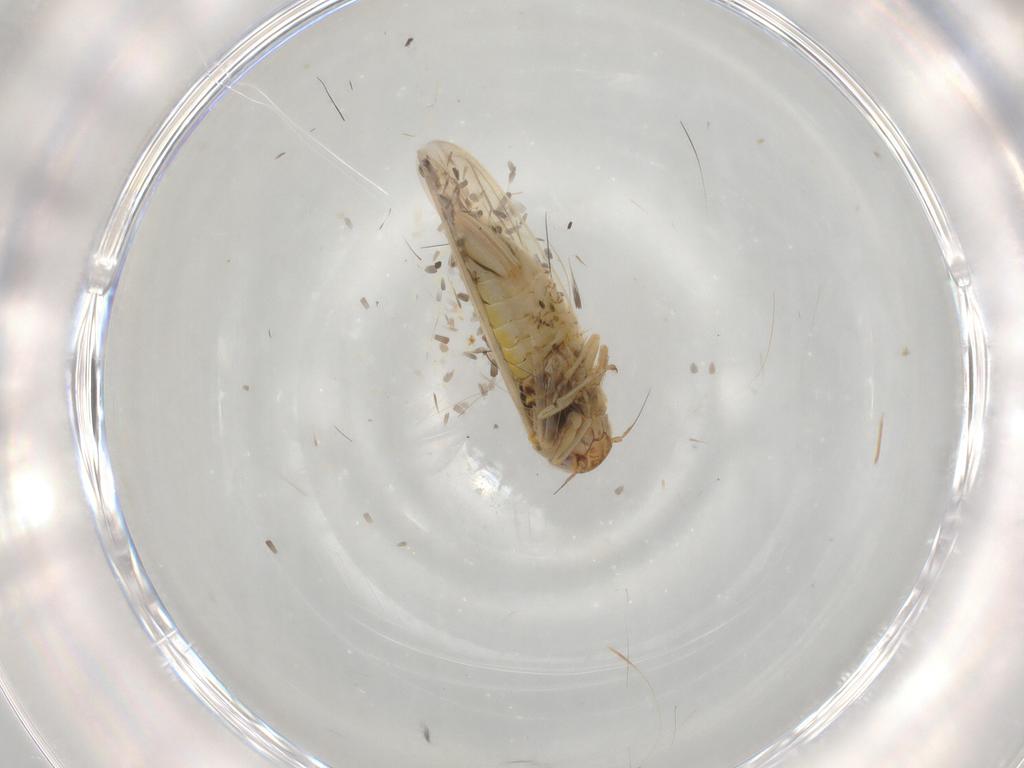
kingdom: Animalia
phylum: Arthropoda
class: Insecta
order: Hemiptera
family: Cicadellidae
